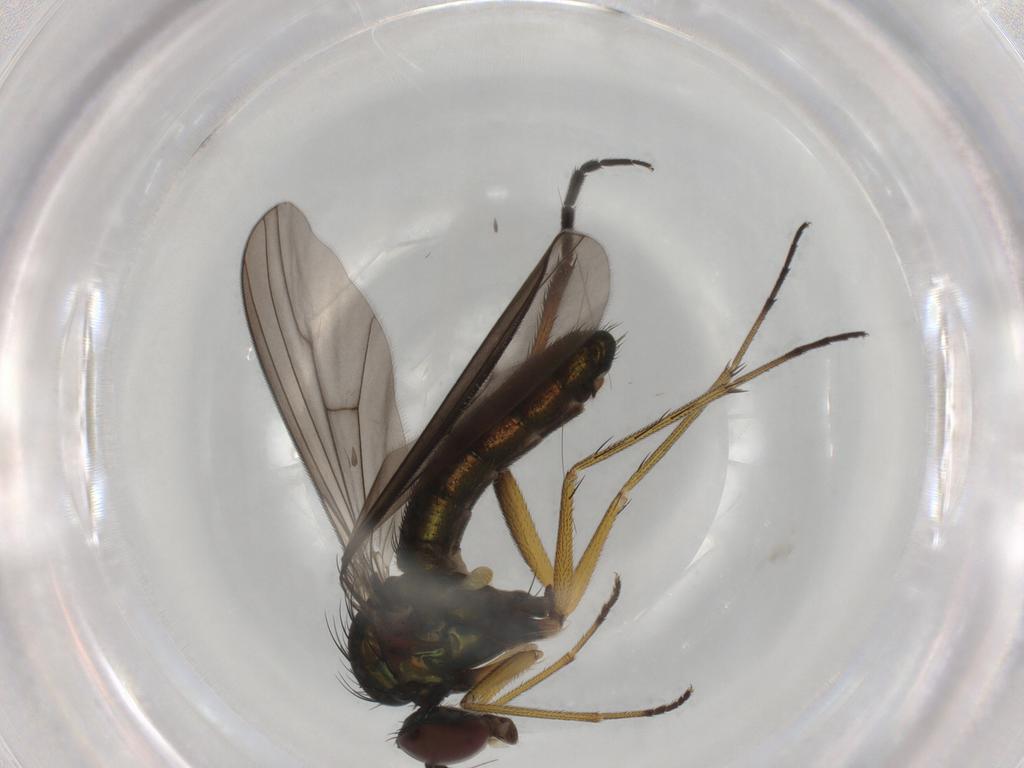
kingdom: Animalia
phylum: Arthropoda
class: Insecta
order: Diptera
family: Dolichopodidae
